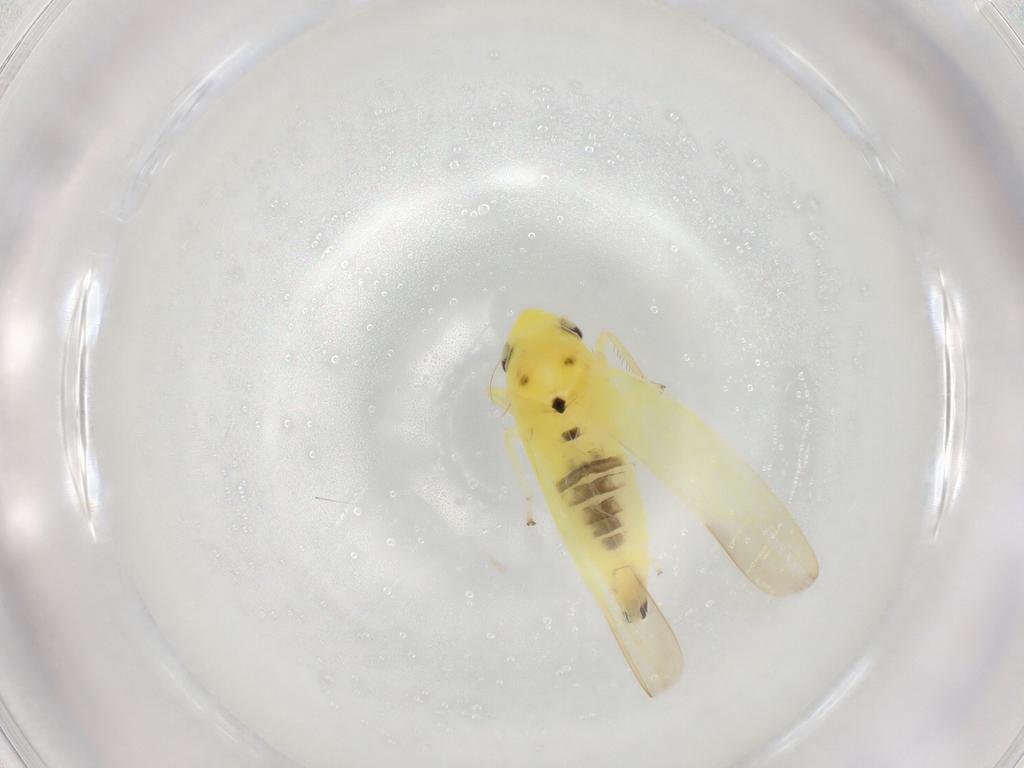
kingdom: Animalia
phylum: Arthropoda
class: Insecta
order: Hemiptera
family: Cicadellidae
